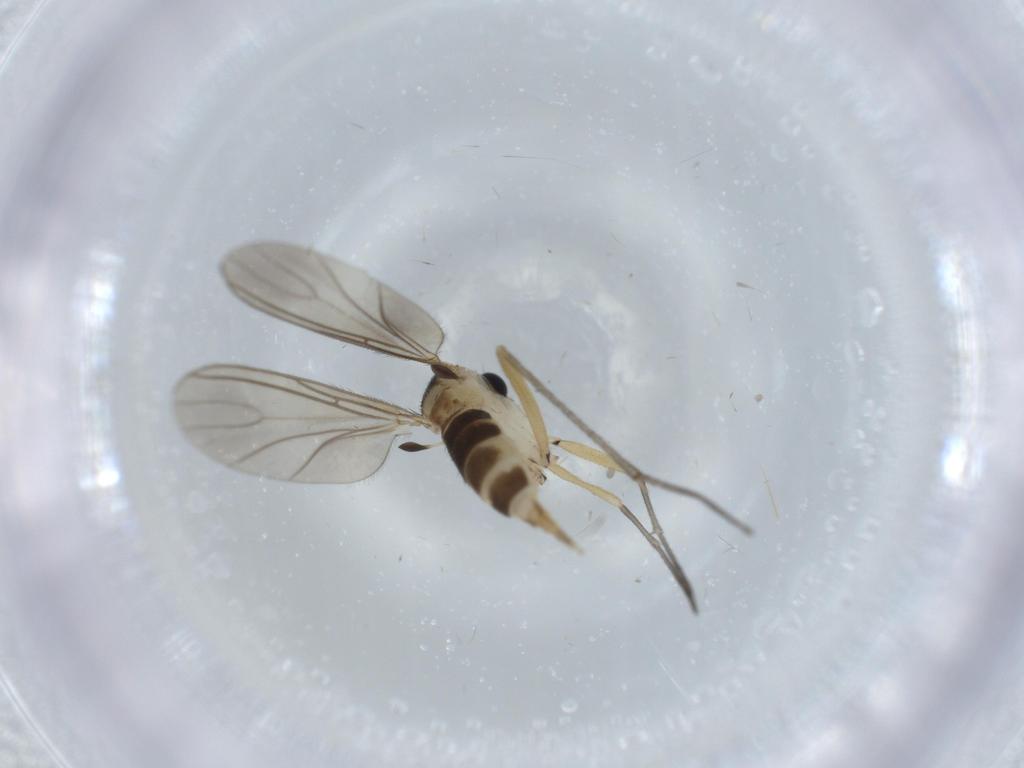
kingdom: Animalia
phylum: Arthropoda
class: Insecta
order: Diptera
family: Sciaridae
